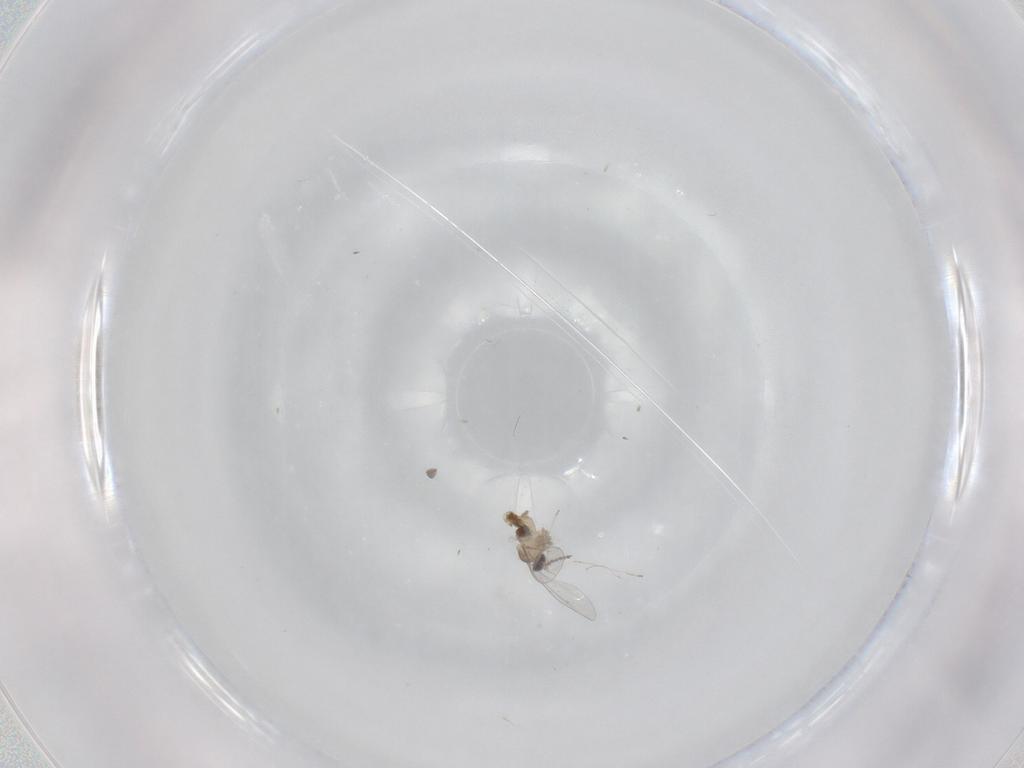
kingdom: Animalia
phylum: Arthropoda
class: Insecta
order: Diptera
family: Cecidomyiidae
